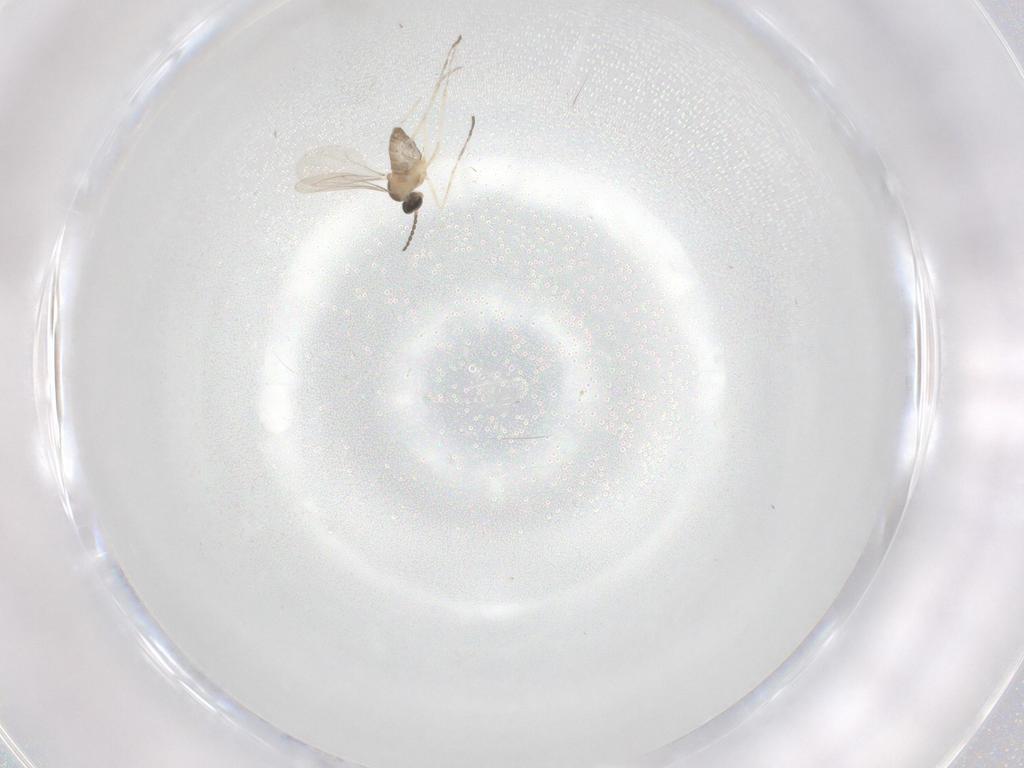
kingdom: Animalia
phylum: Arthropoda
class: Insecta
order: Diptera
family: Cecidomyiidae
